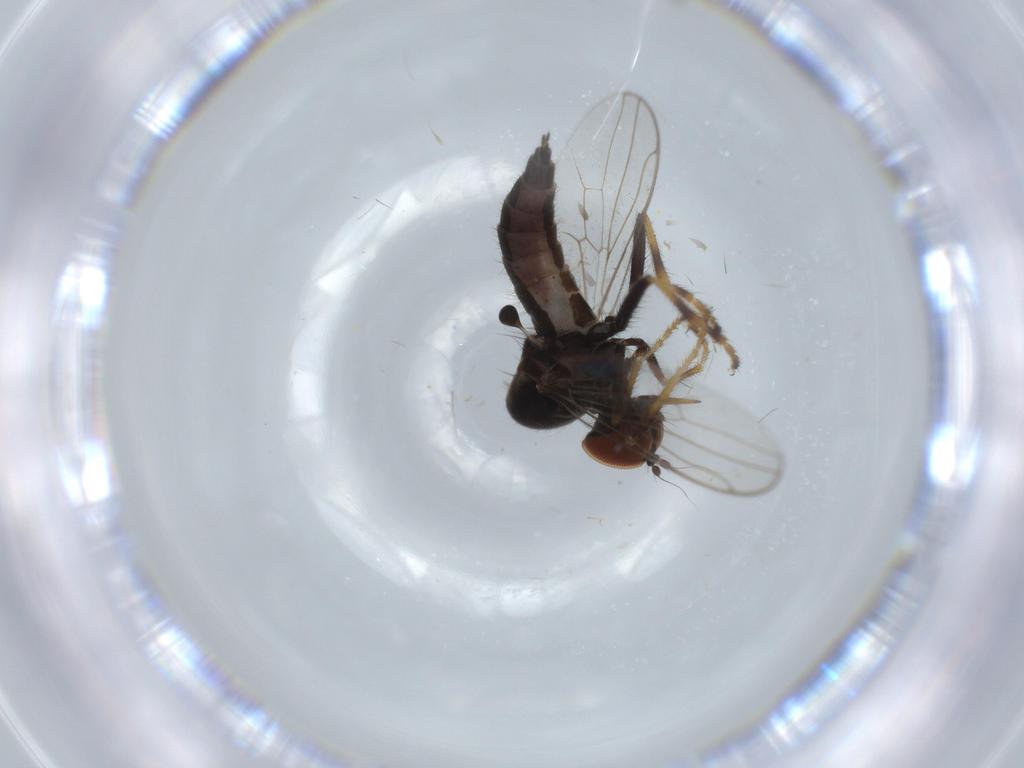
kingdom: Animalia
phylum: Arthropoda
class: Insecta
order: Diptera
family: Hybotidae
